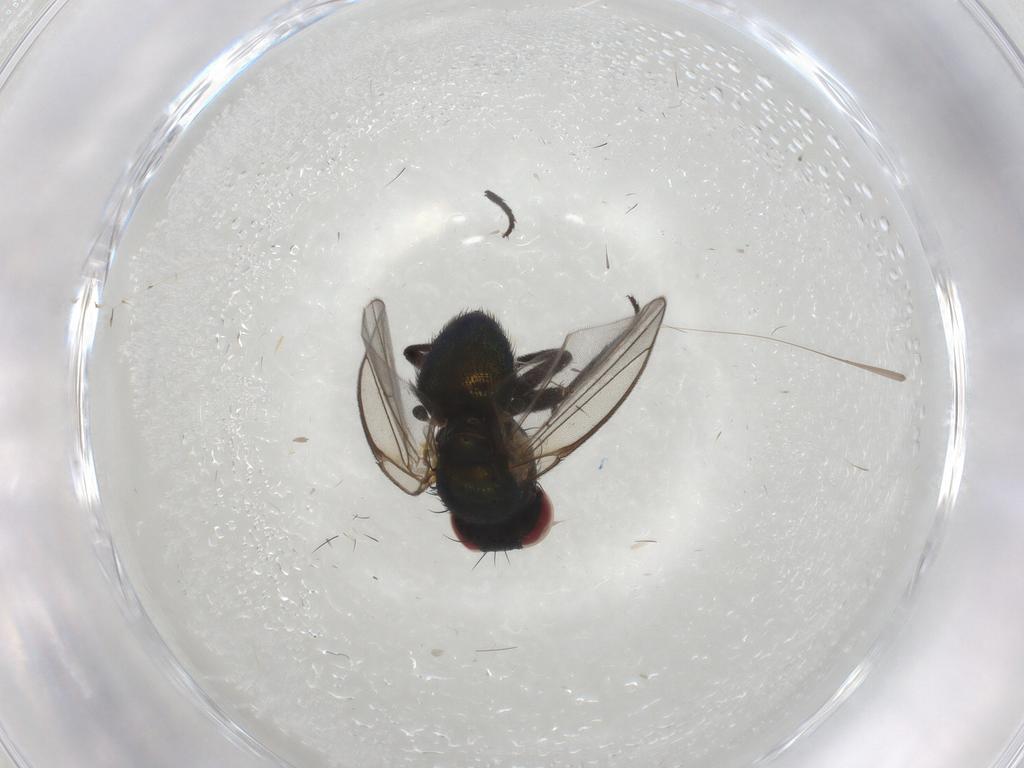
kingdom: Animalia
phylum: Arthropoda
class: Insecta
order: Diptera
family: Agromyzidae
